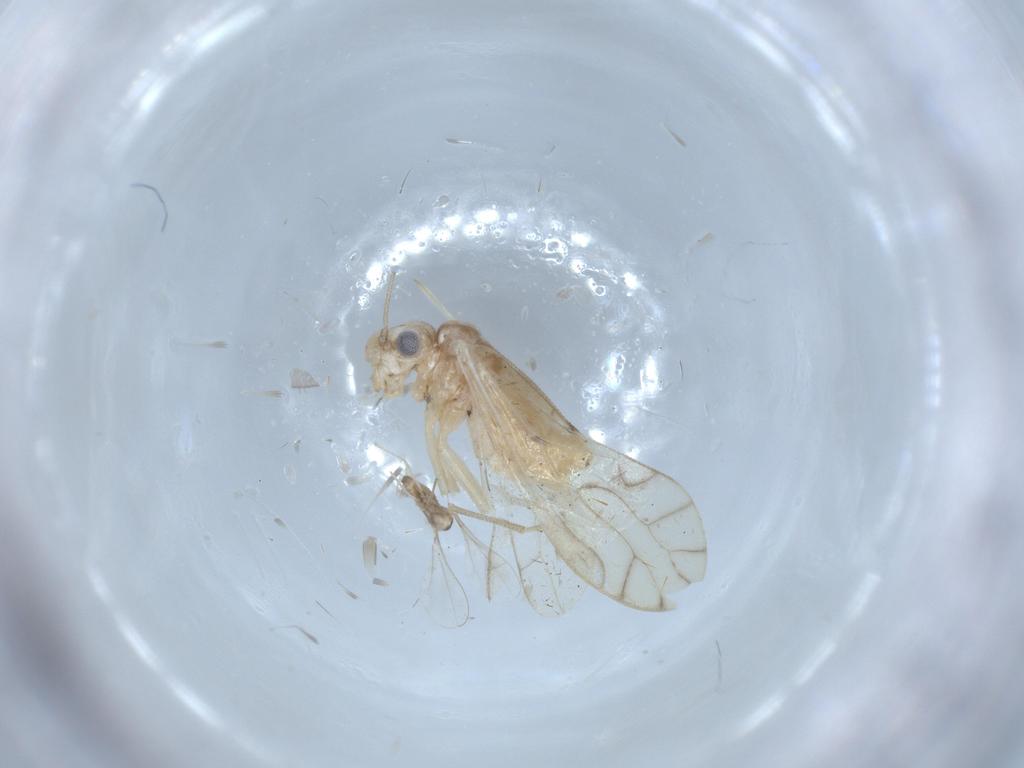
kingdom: Animalia
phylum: Arthropoda
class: Insecta
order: Psocodea
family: Caeciliusidae
